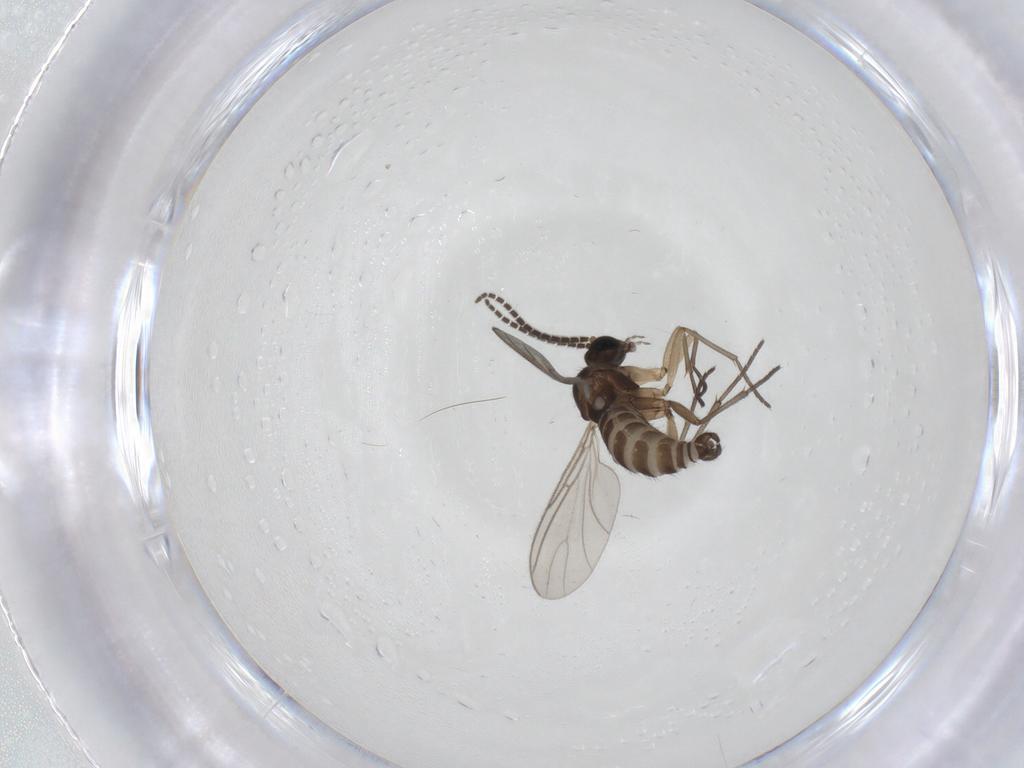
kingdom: Animalia
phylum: Arthropoda
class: Insecta
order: Diptera
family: Sciaridae
